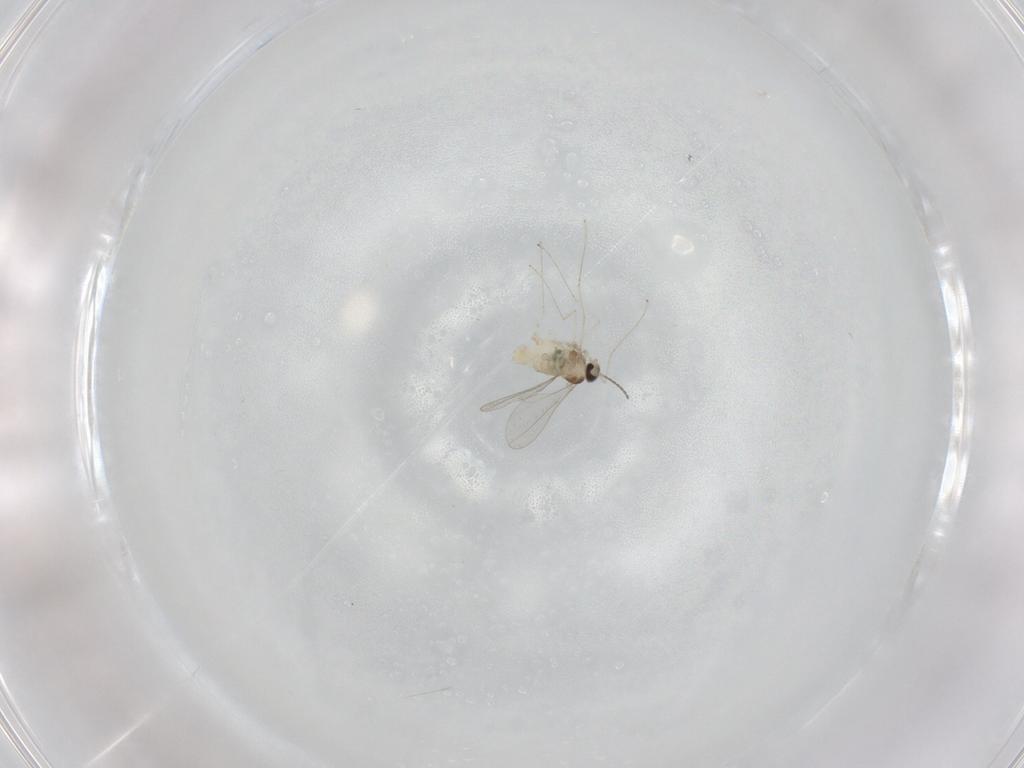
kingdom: Animalia
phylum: Arthropoda
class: Insecta
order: Diptera
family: Cecidomyiidae
